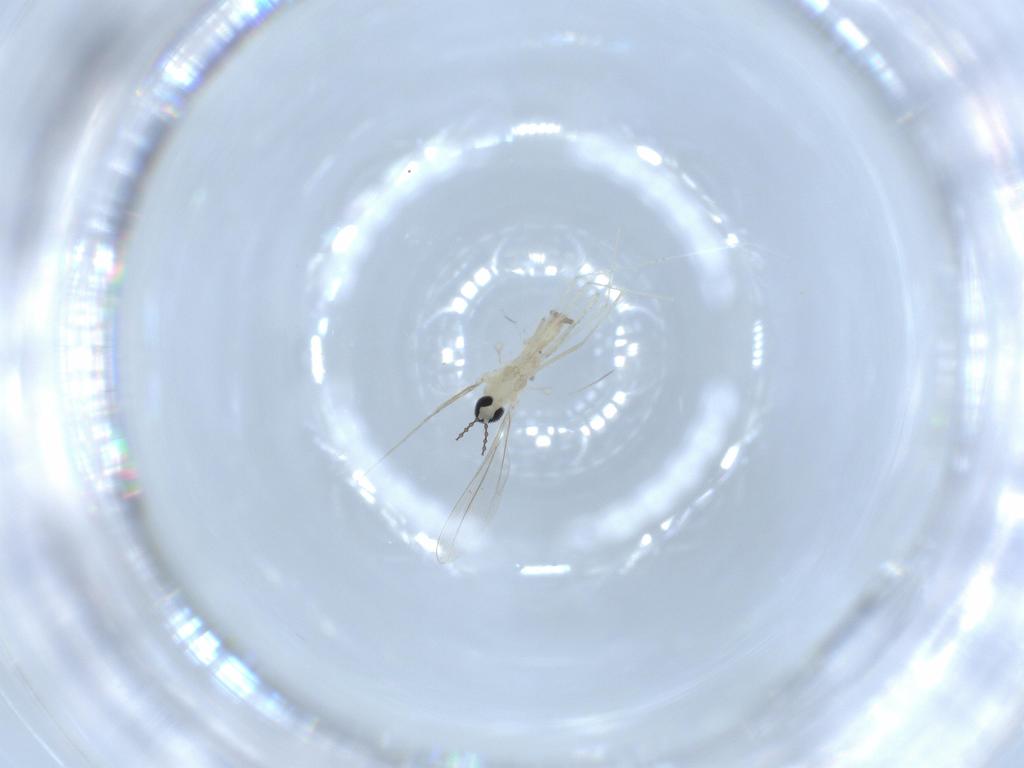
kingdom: Animalia
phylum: Arthropoda
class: Insecta
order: Diptera
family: Cecidomyiidae
